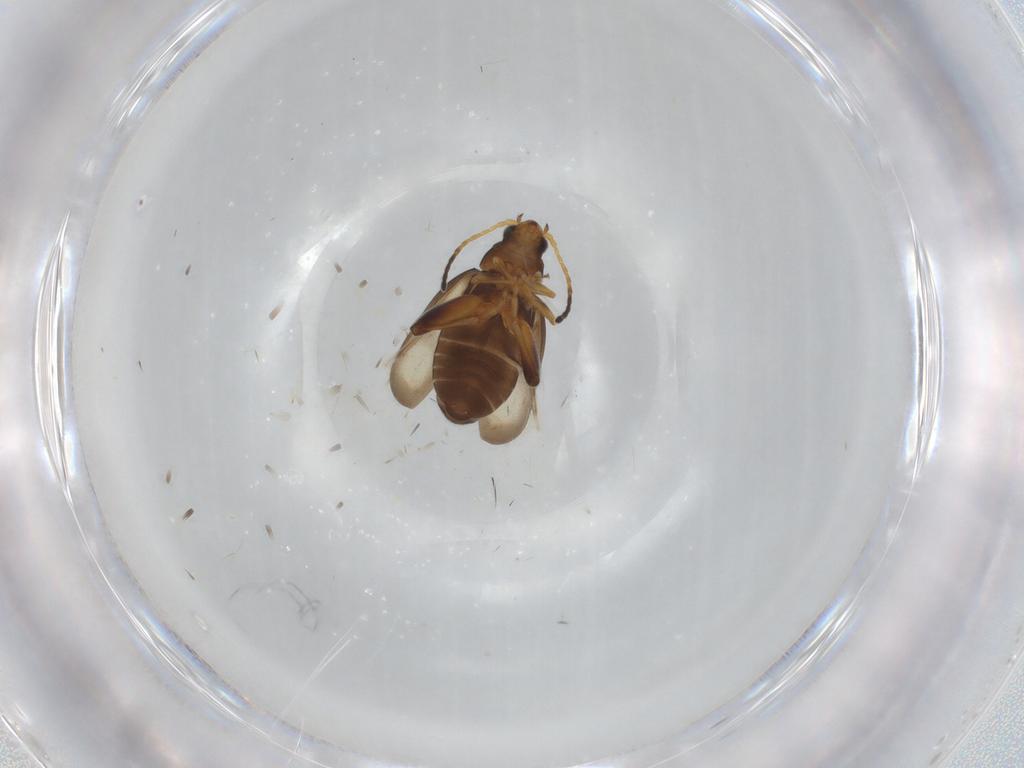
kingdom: Animalia
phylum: Arthropoda
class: Insecta
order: Coleoptera
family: Chrysomelidae
